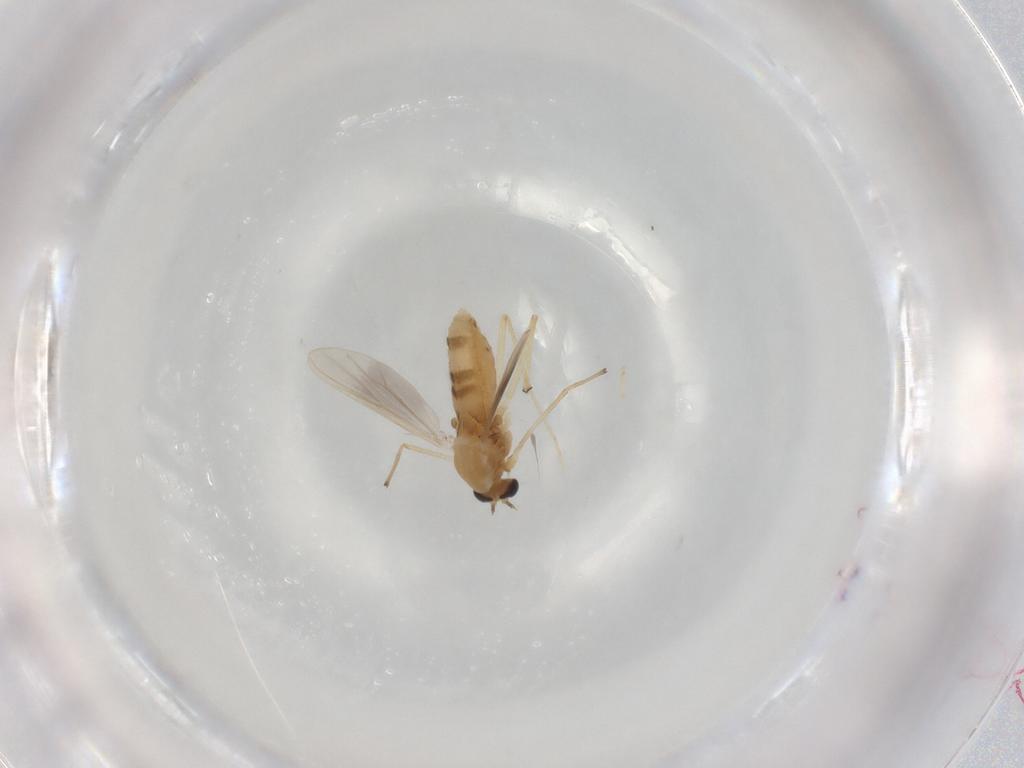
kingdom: Animalia
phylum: Arthropoda
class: Insecta
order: Diptera
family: Chironomidae
